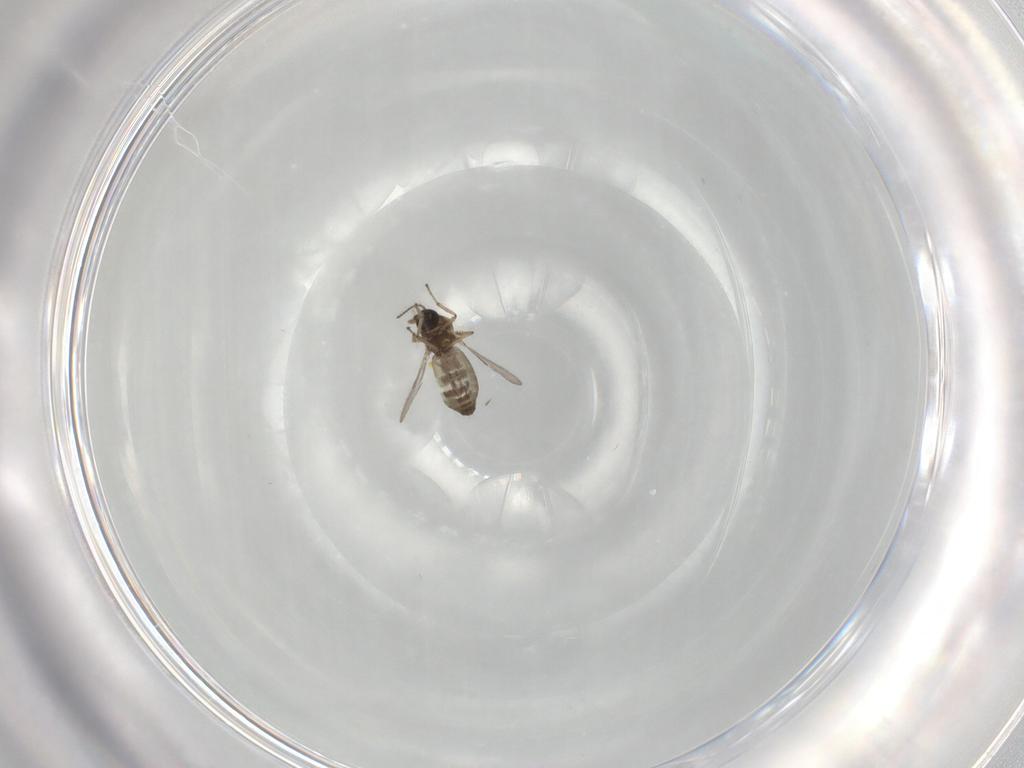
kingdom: Animalia
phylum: Arthropoda
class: Insecta
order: Diptera
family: Ceratopogonidae
